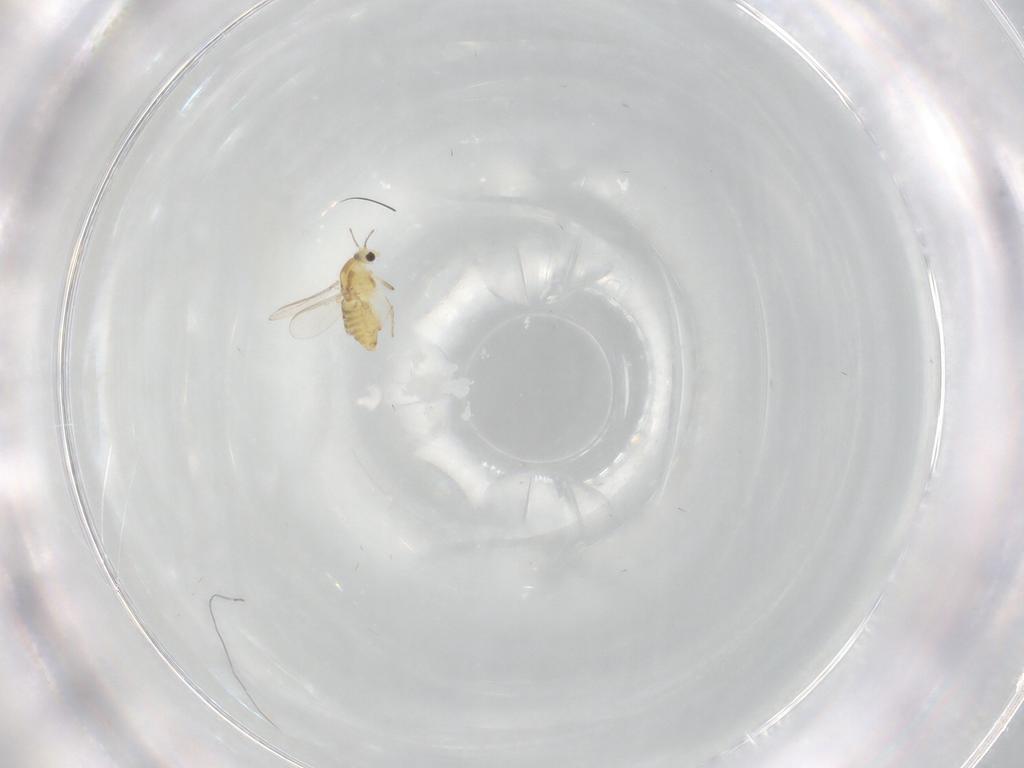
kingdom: Animalia
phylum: Arthropoda
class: Insecta
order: Diptera
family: Chironomidae
